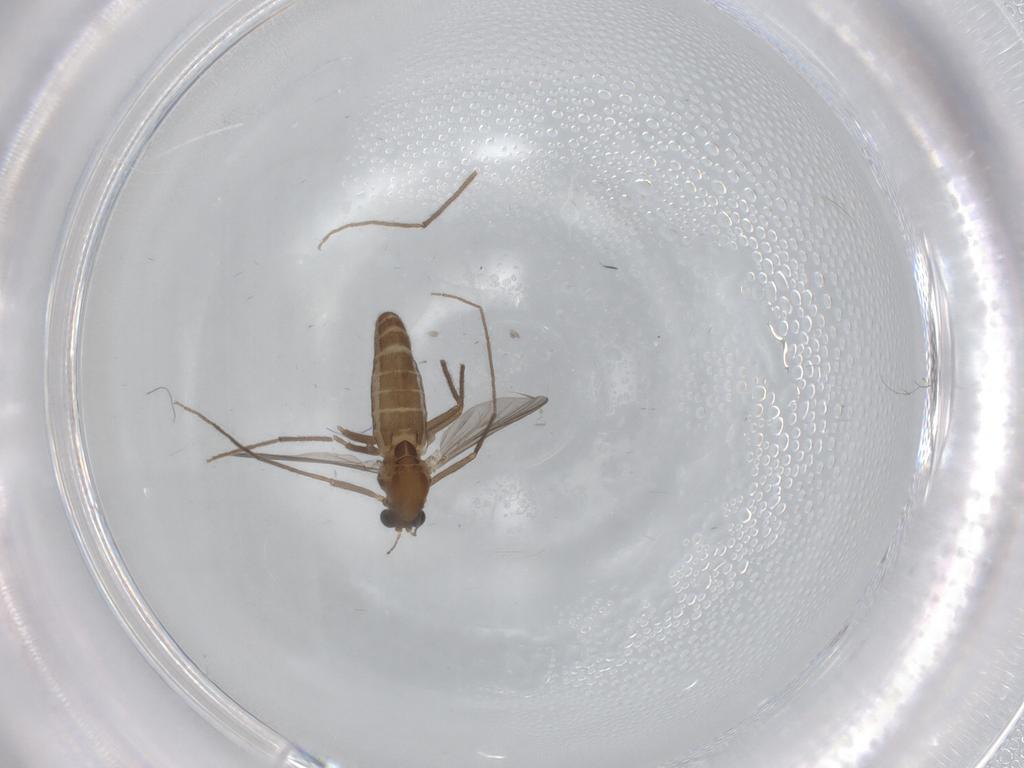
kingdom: Animalia
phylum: Arthropoda
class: Insecta
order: Diptera
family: Chironomidae
